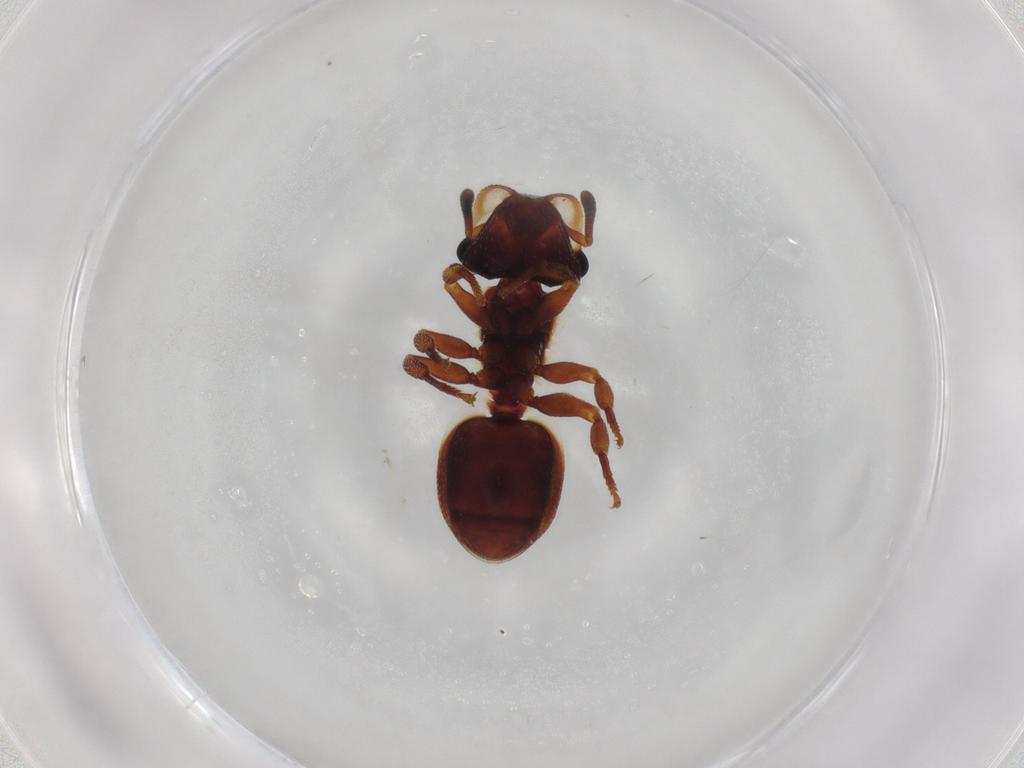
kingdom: Animalia
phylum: Arthropoda
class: Insecta
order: Hymenoptera
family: Formicidae
